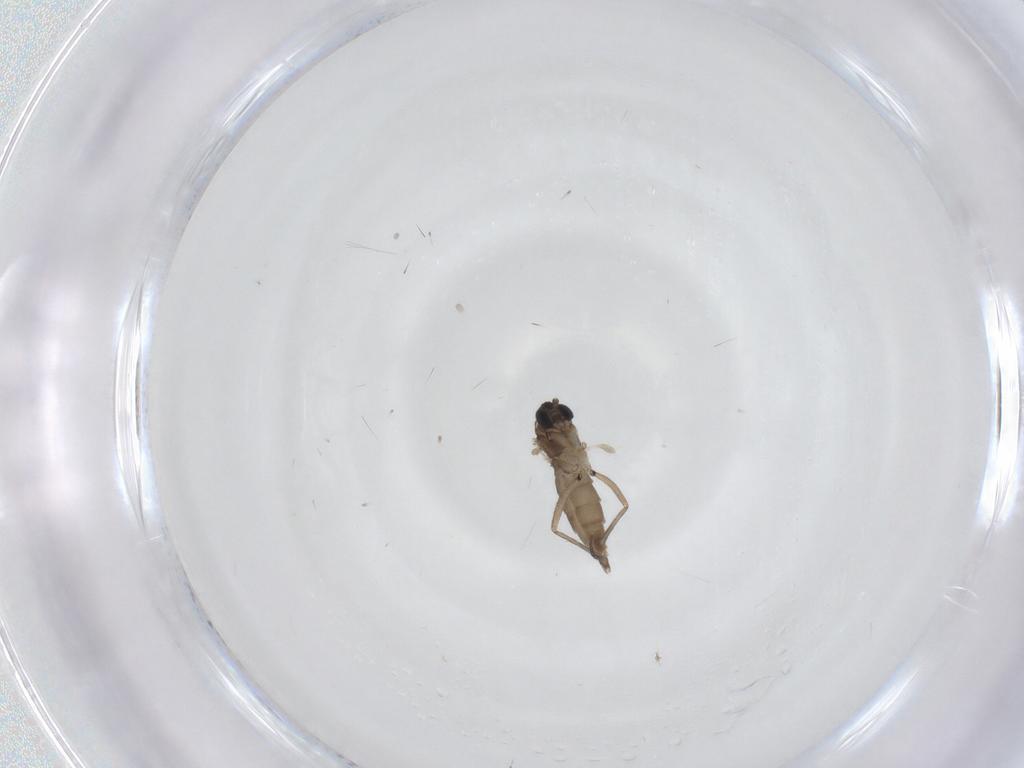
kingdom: Animalia
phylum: Arthropoda
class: Insecta
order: Diptera
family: Sciaridae
